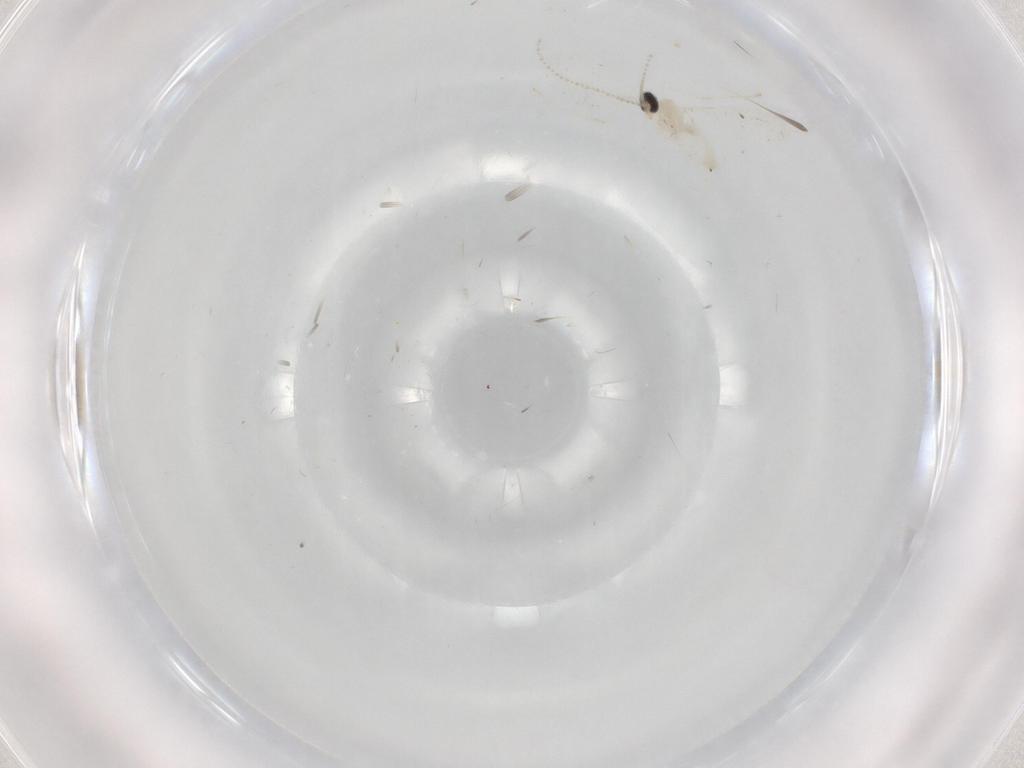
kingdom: Animalia
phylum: Arthropoda
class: Insecta
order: Diptera
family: Cecidomyiidae
